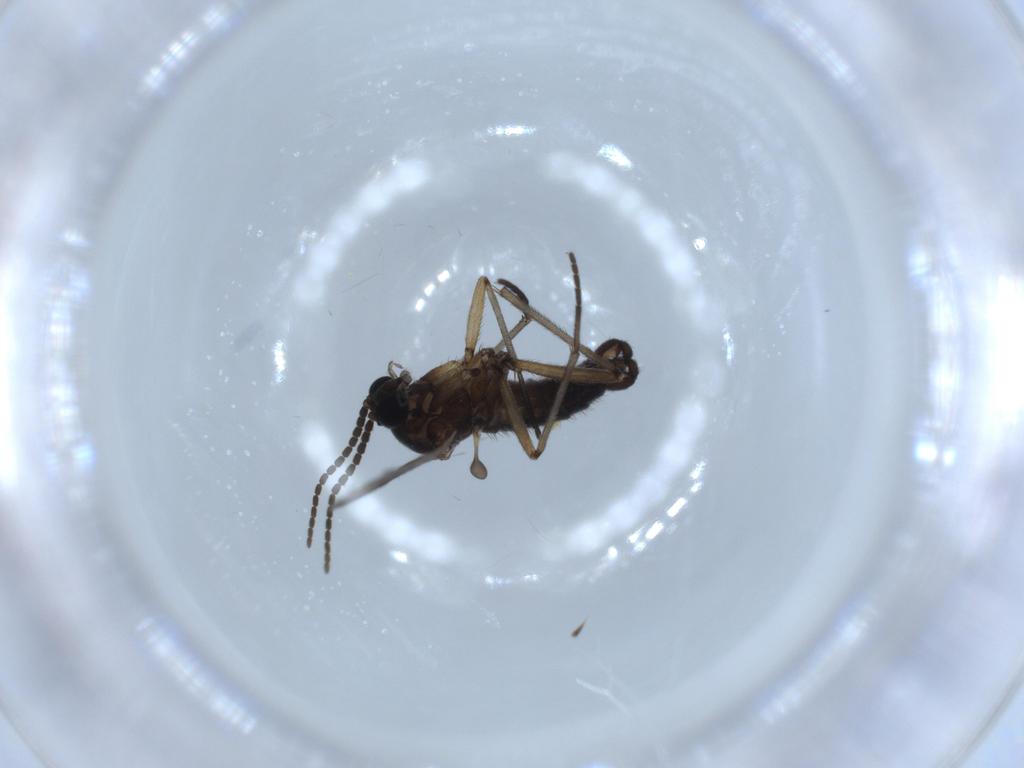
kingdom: Animalia
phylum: Arthropoda
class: Insecta
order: Diptera
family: Sciaridae
